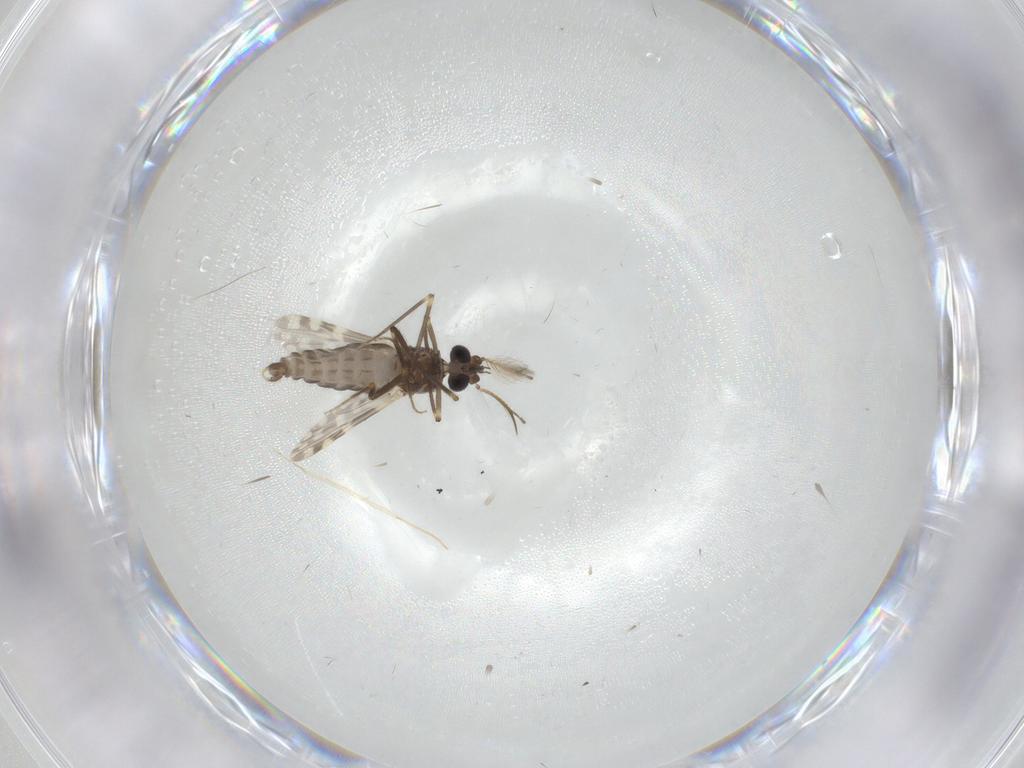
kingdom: Animalia
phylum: Arthropoda
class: Insecta
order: Diptera
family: Ceratopogonidae
